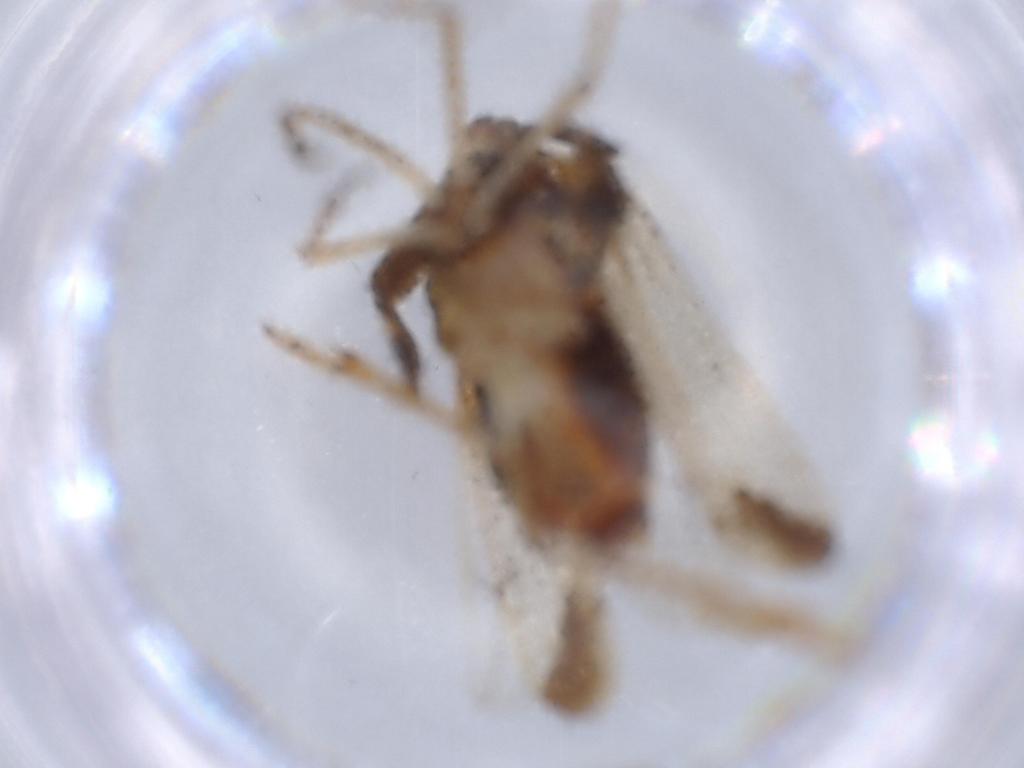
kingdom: Animalia
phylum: Arthropoda
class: Insecta
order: Hemiptera
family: Delphacidae
